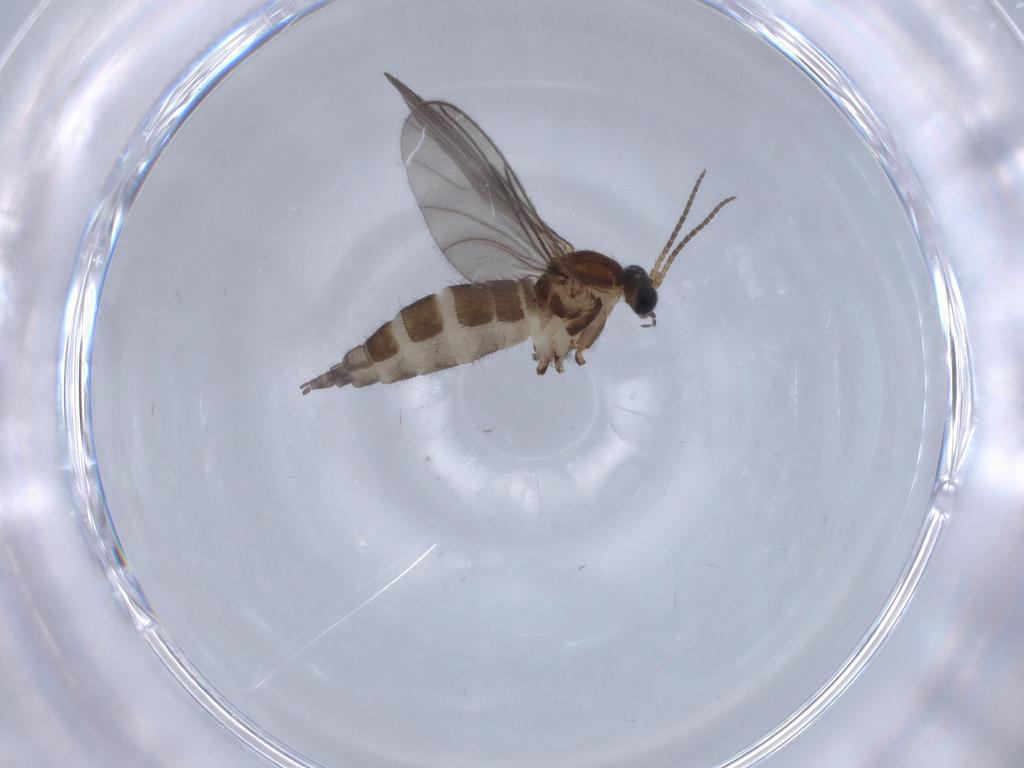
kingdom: Animalia
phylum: Arthropoda
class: Insecta
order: Diptera
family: Sciaridae
